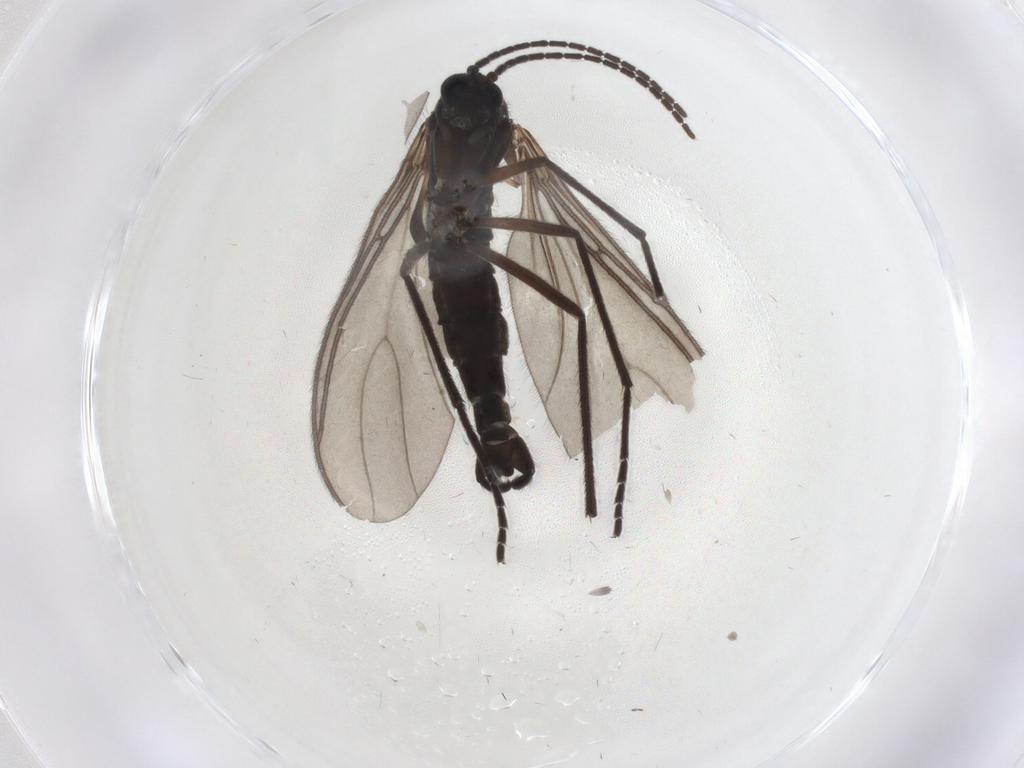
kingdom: Animalia
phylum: Arthropoda
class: Insecta
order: Diptera
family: Sciaridae
